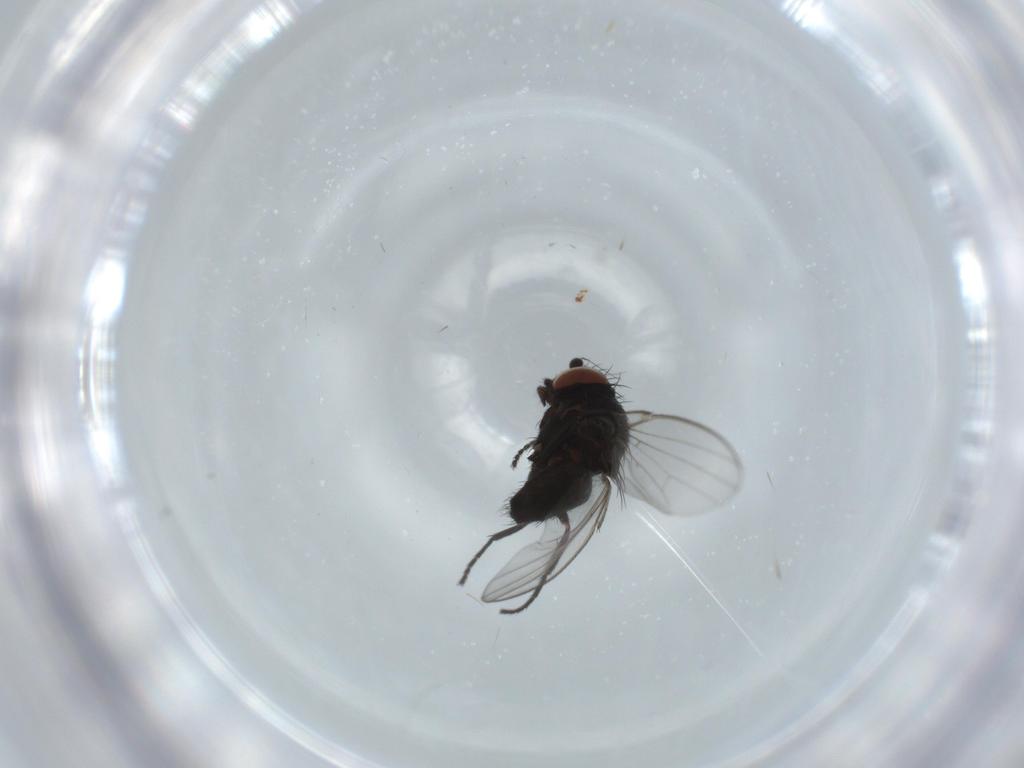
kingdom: Animalia
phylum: Arthropoda
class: Insecta
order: Diptera
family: Milichiidae
